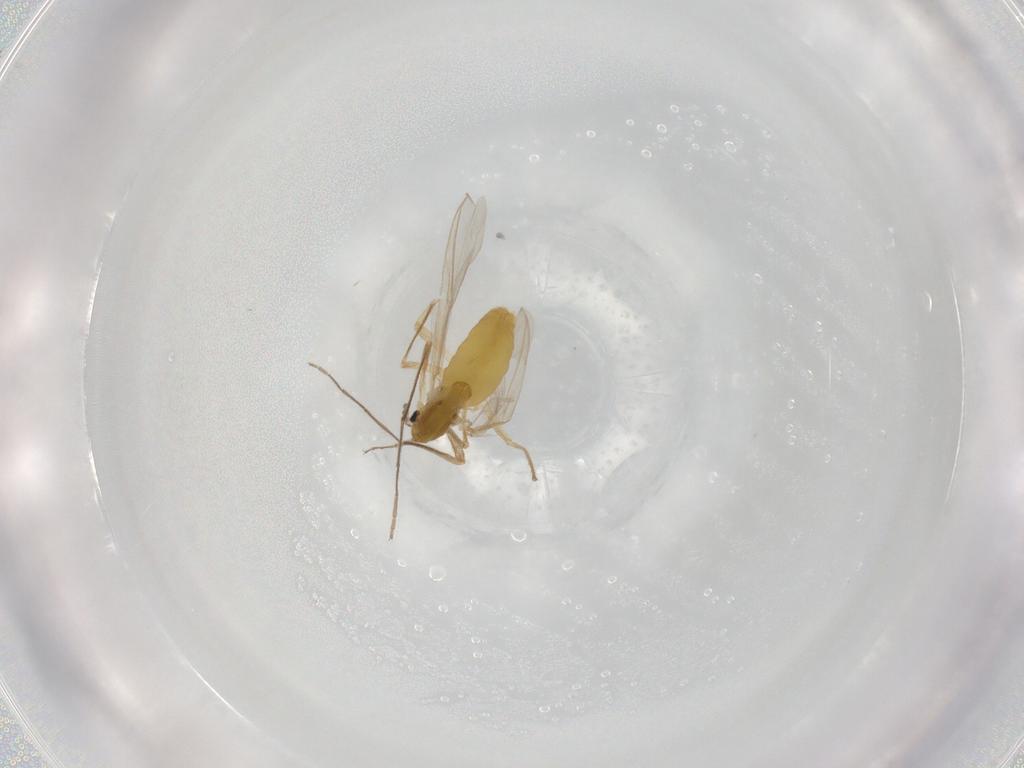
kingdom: Animalia
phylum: Arthropoda
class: Insecta
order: Diptera
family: Chironomidae
